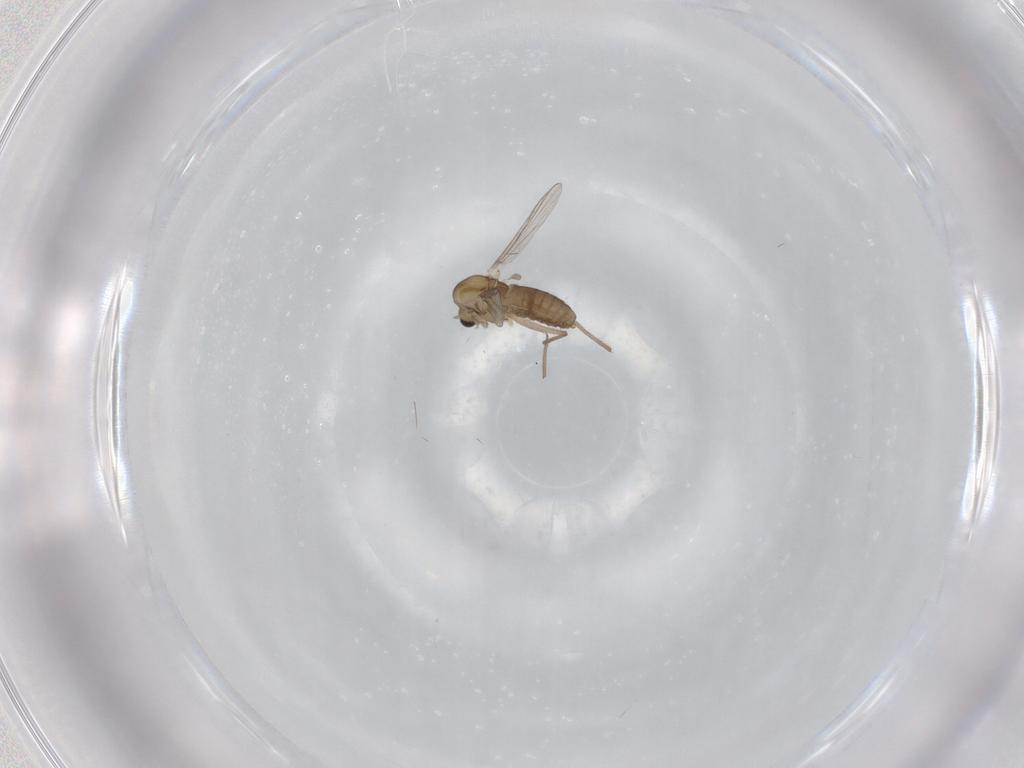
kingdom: Animalia
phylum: Arthropoda
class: Insecta
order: Diptera
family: Chironomidae
